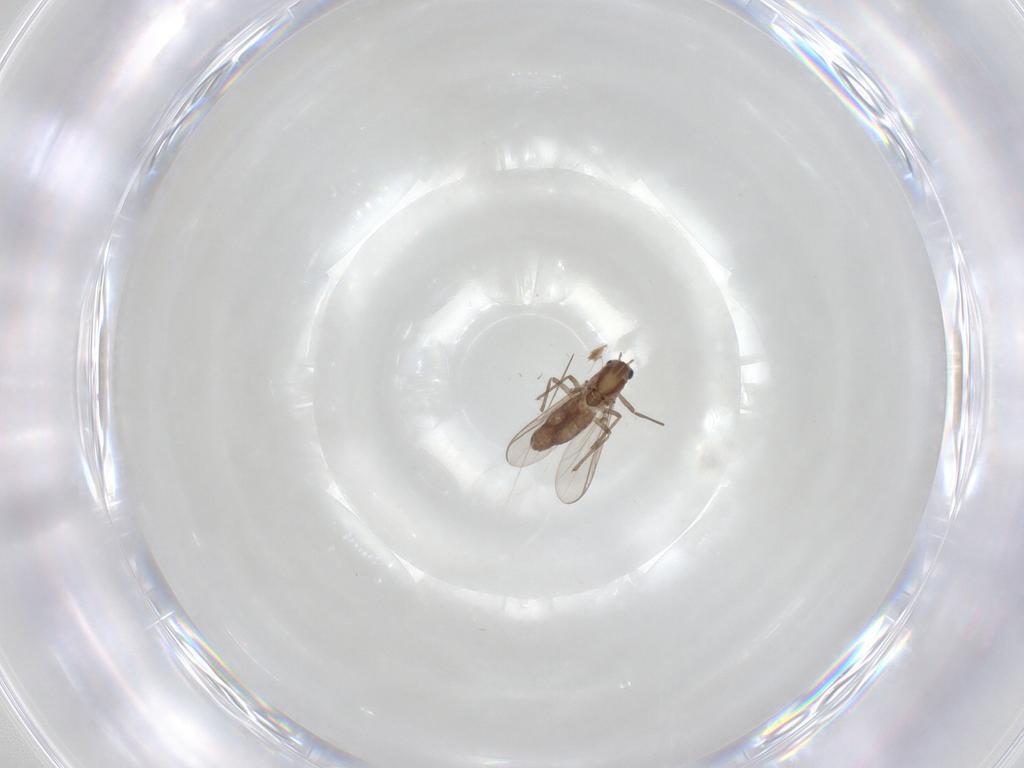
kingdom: Animalia
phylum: Arthropoda
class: Insecta
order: Diptera
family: Chironomidae
